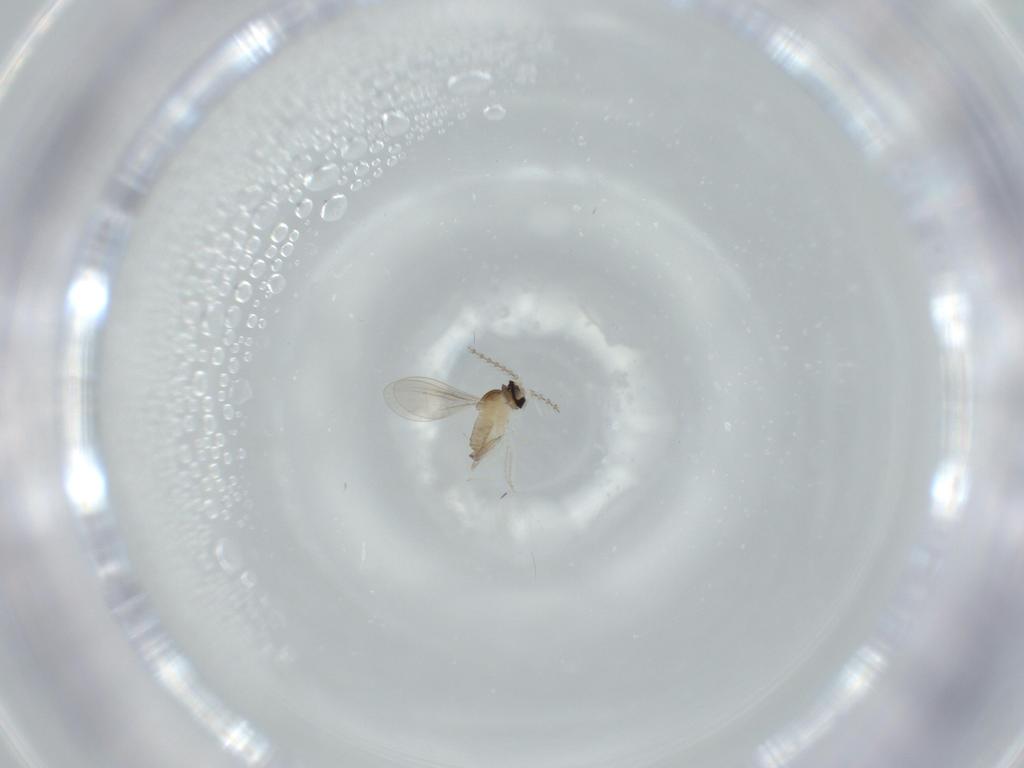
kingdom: Animalia
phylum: Arthropoda
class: Insecta
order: Diptera
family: Cecidomyiidae
